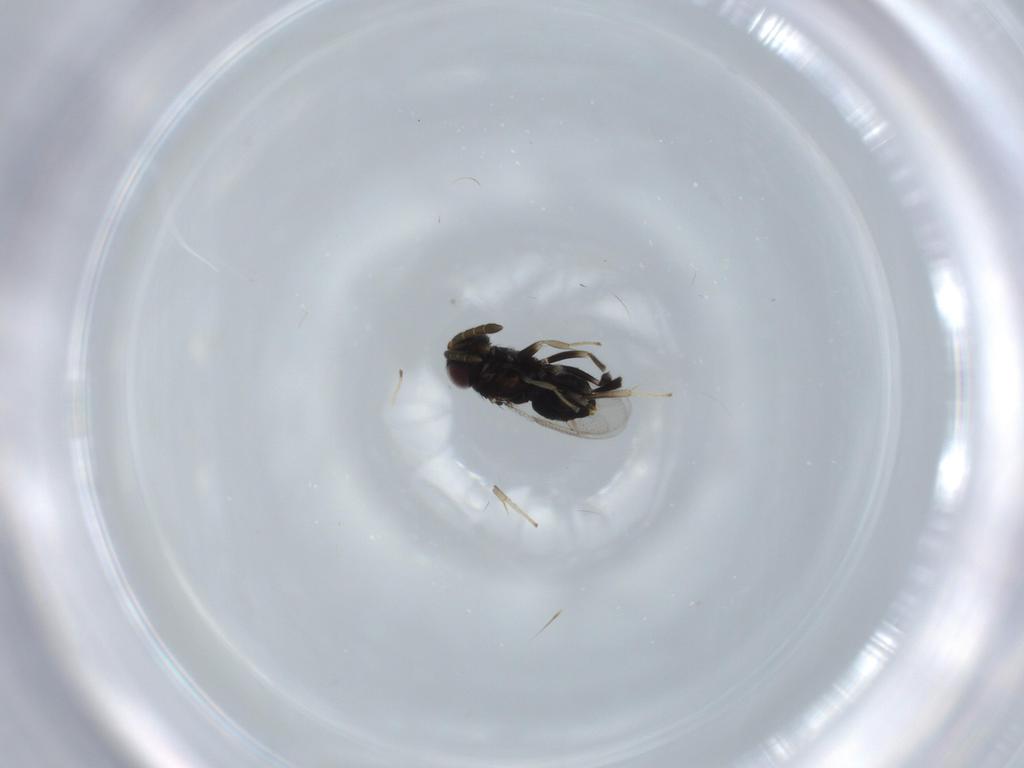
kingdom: Animalia
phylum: Arthropoda
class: Insecta
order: Hymenoptera
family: Aphelinidae
